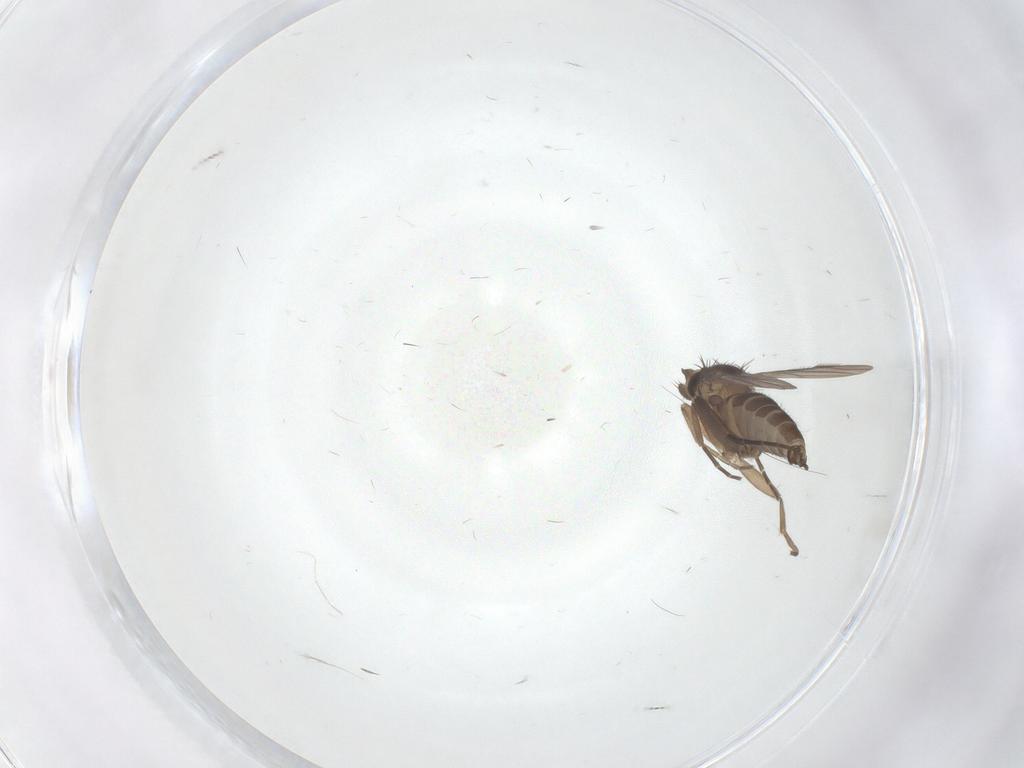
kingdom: Animalia
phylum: Arthropoda
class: Insecta
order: Diptera
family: Phoridae
